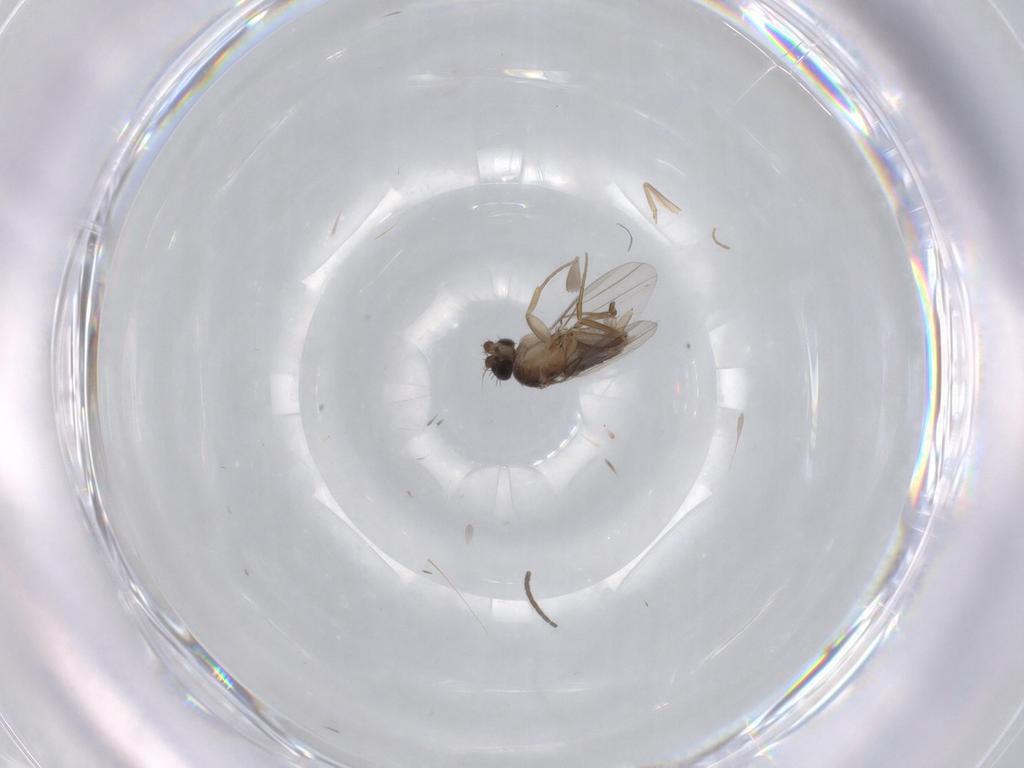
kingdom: Animalia
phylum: Arthropoda
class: Insecta
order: Diptera
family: Phoridae
